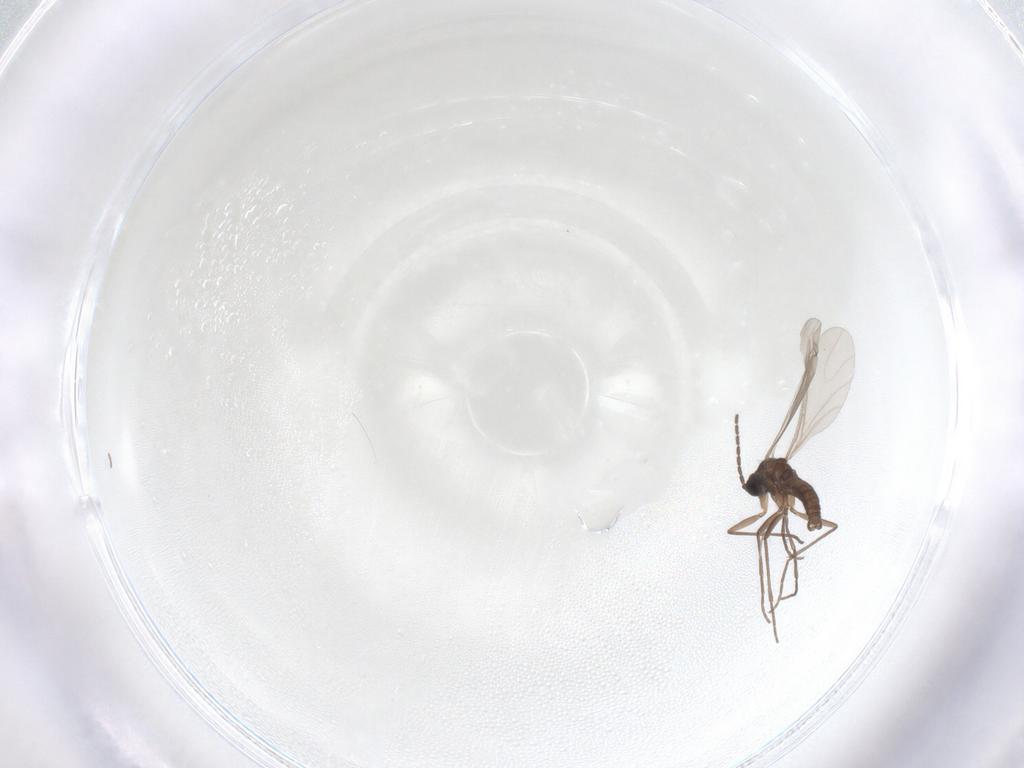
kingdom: Animalia
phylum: Arthropoda
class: Insecta
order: Diptera
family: Sciaridae
